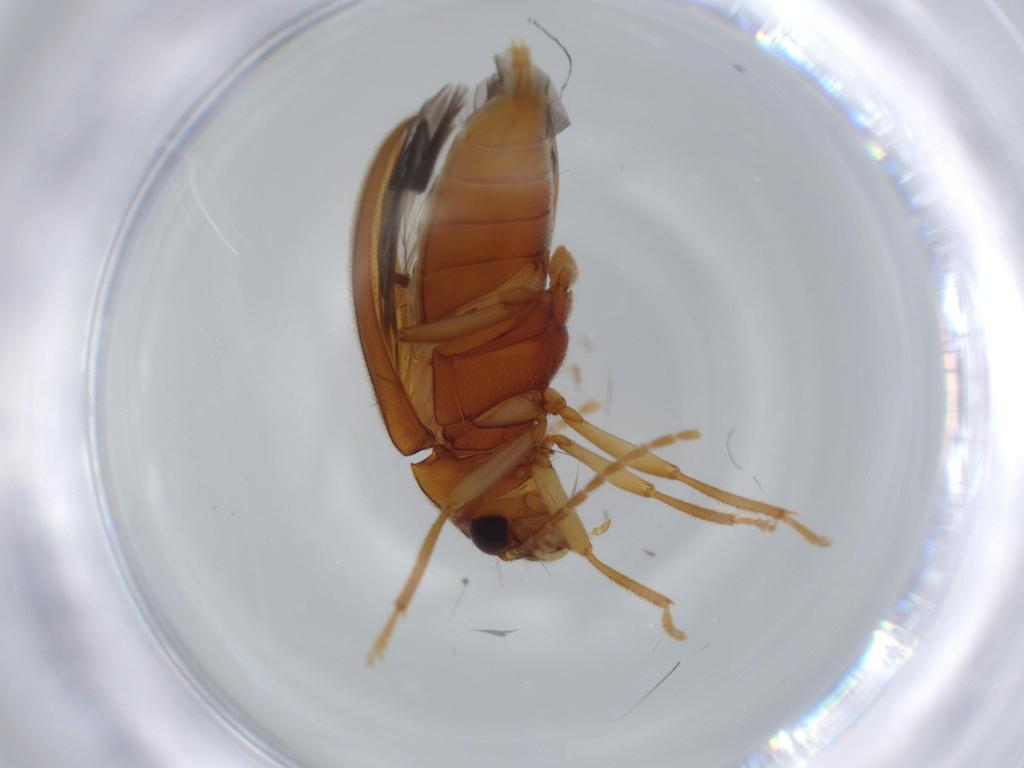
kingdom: Animalia
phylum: Arthropoda
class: Insecta
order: Coleoptera
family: Ptilodactylidae
